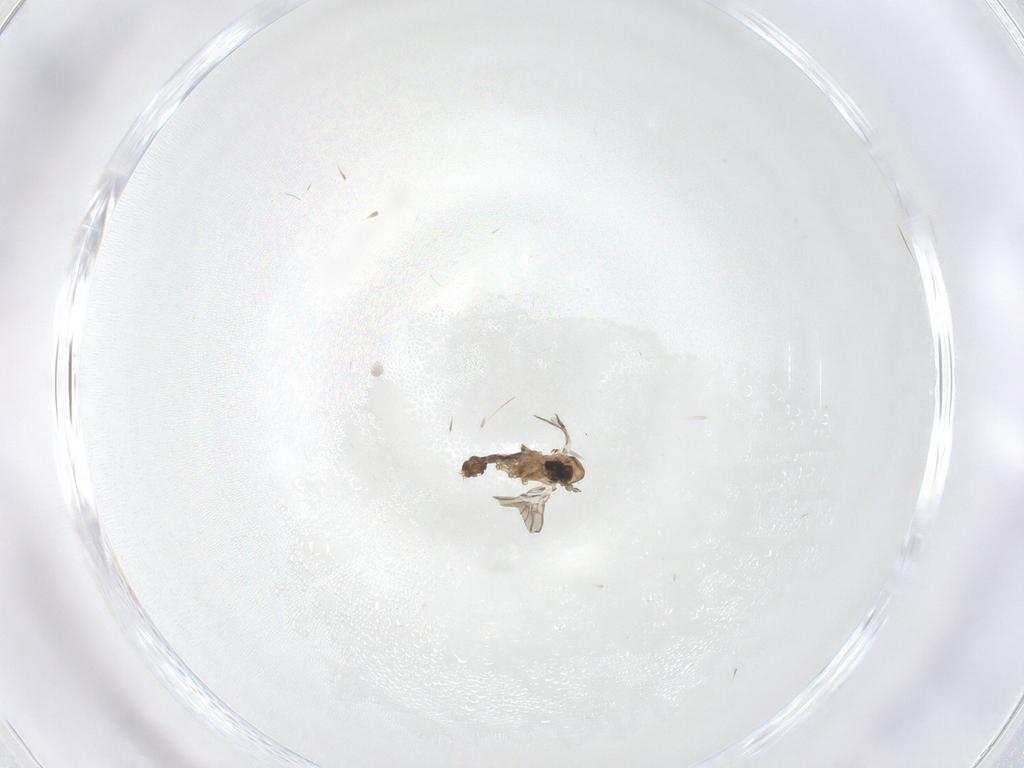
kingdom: Animalia
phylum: Arthropoda
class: Insecta
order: Diptera
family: Psychodidae
